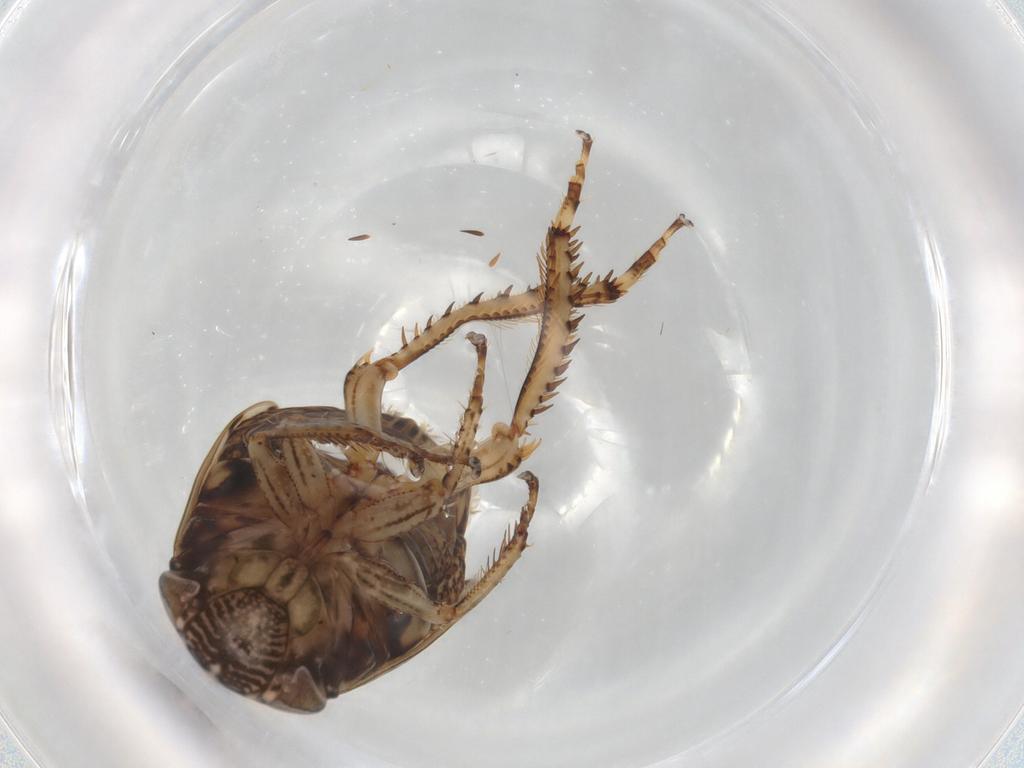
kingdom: Animalia
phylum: Arthropoda
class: Insecta
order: Hemiptera
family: Cicadellidae
